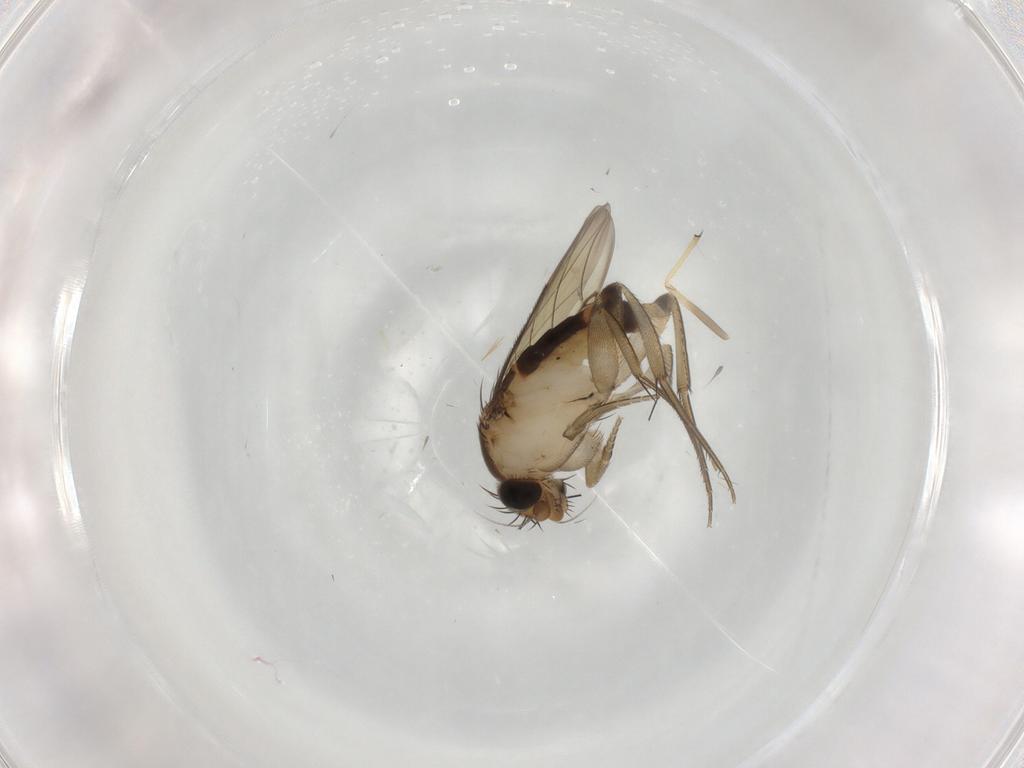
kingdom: Animalia
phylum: Arthropoda
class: Insecta
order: Diptera
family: Phoridae
